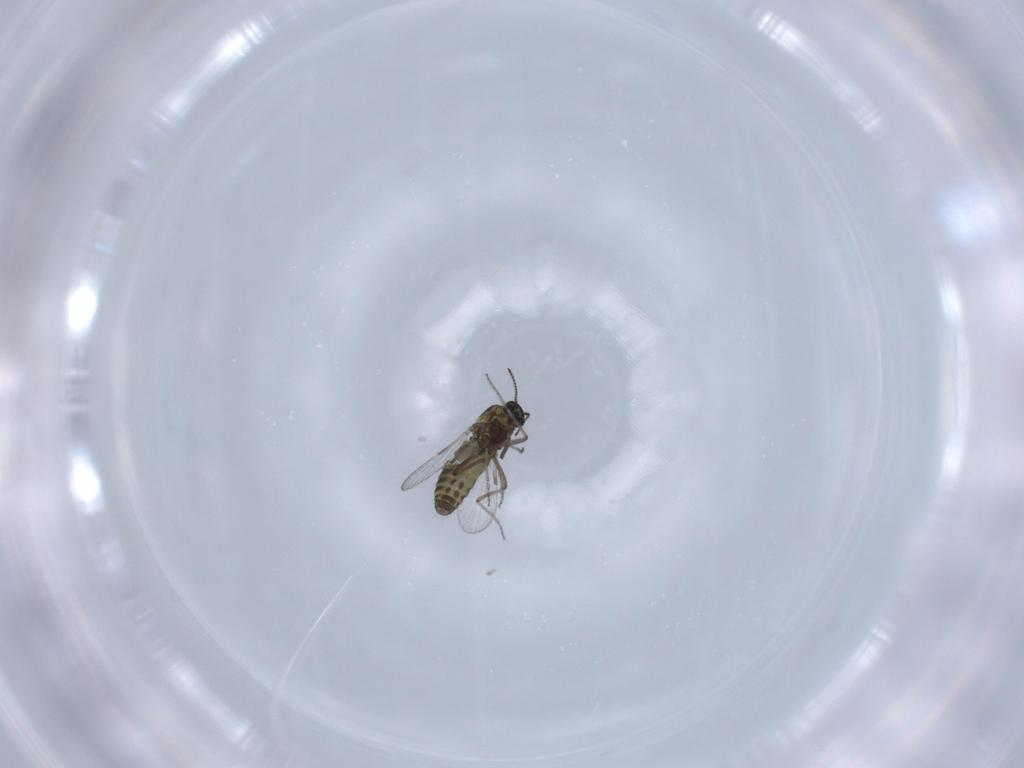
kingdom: Animalia
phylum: Arthropoda
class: Insecta
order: Diptera
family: Ceratopogonidae
